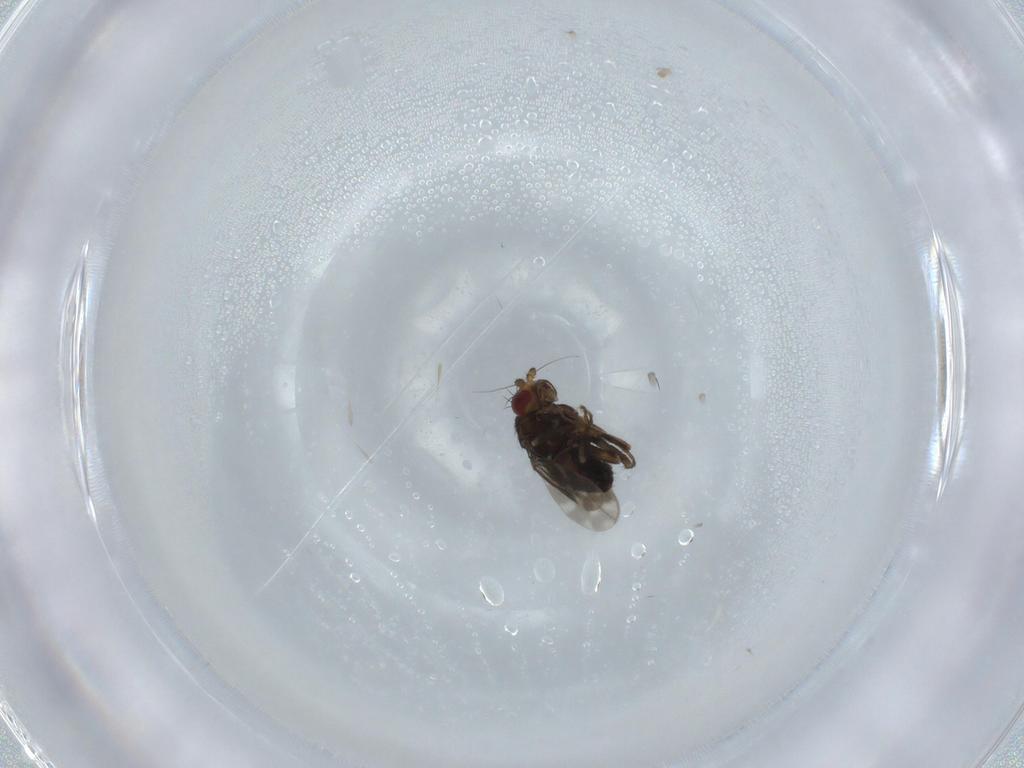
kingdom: Animalia
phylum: Arthropoda
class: Insecta
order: Diptera
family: Sphaeroceridae
